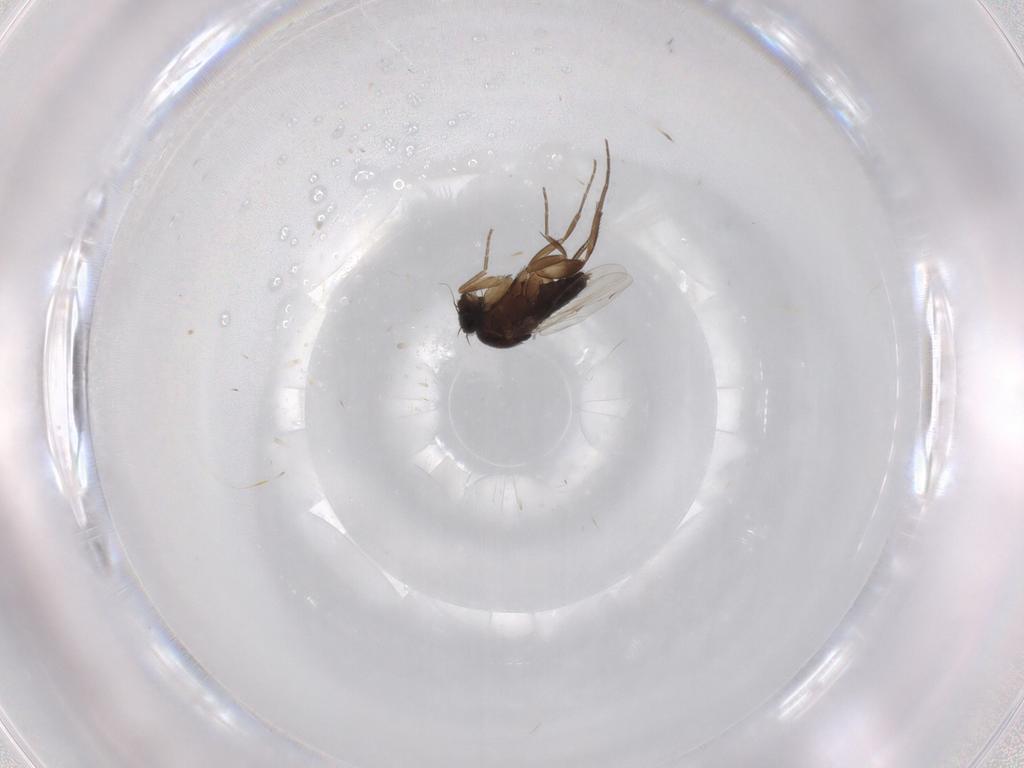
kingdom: Animalia
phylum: Arthropoda
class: Insecta
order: Diptera
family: Phoridae
